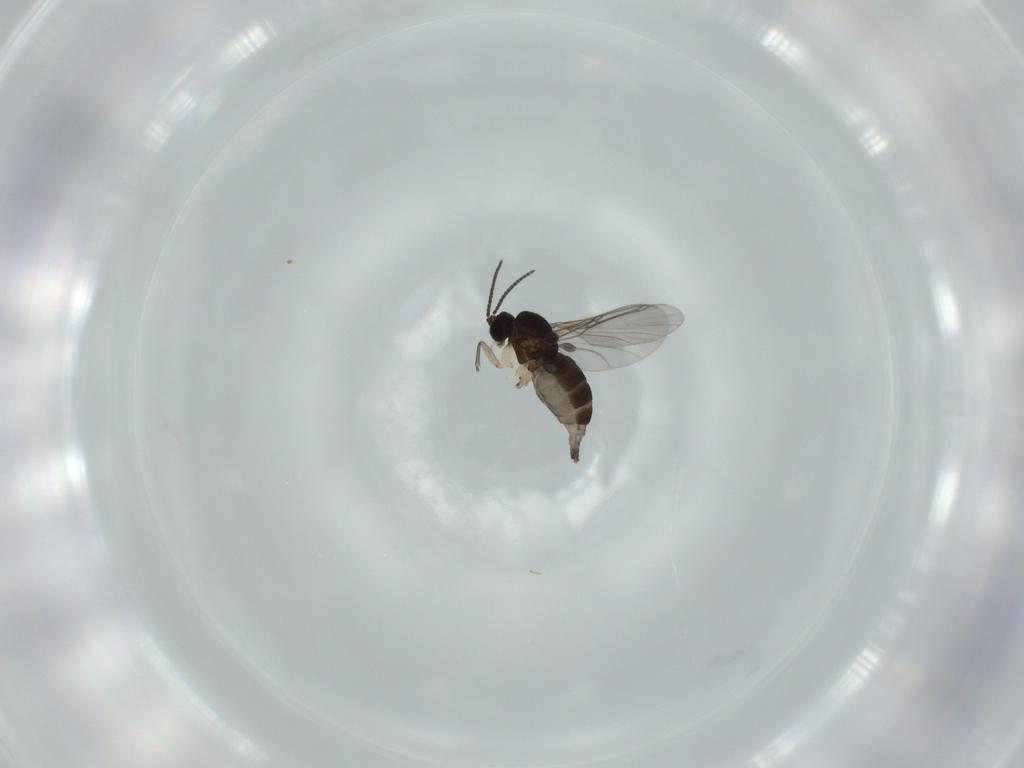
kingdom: Animalia
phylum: Arthropoda
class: Insecta
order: Diptera
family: Sciaridae
